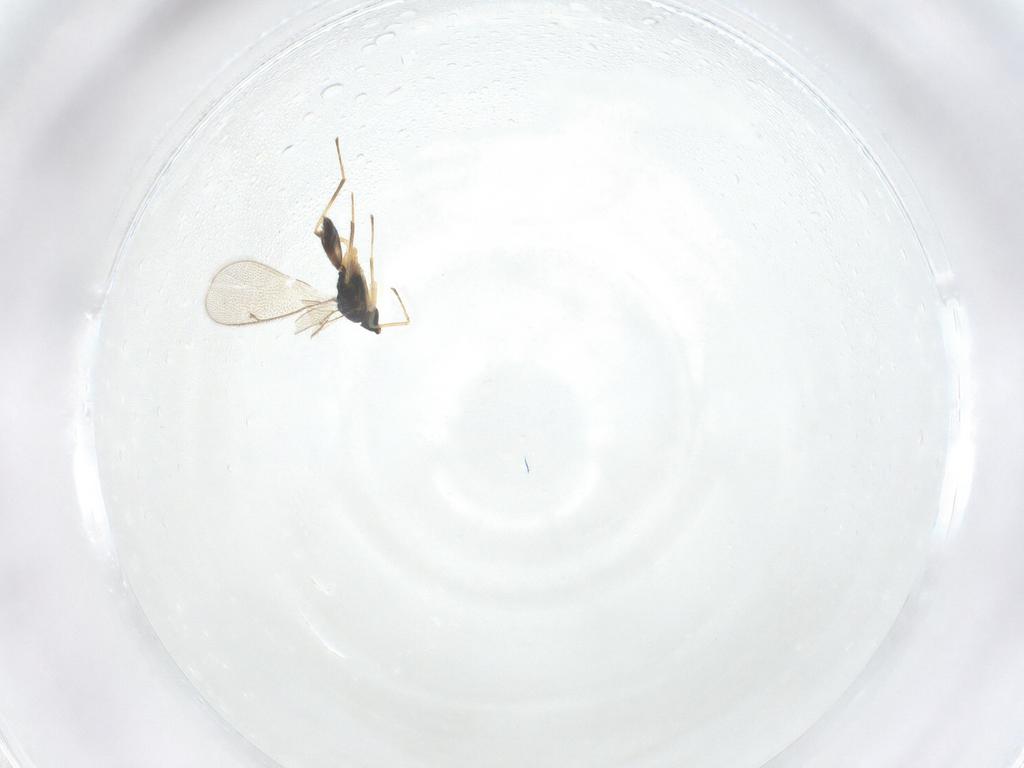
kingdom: Animalia
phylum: Arthropoda
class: Insecta
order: Hymenoptera
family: Eulophidae
